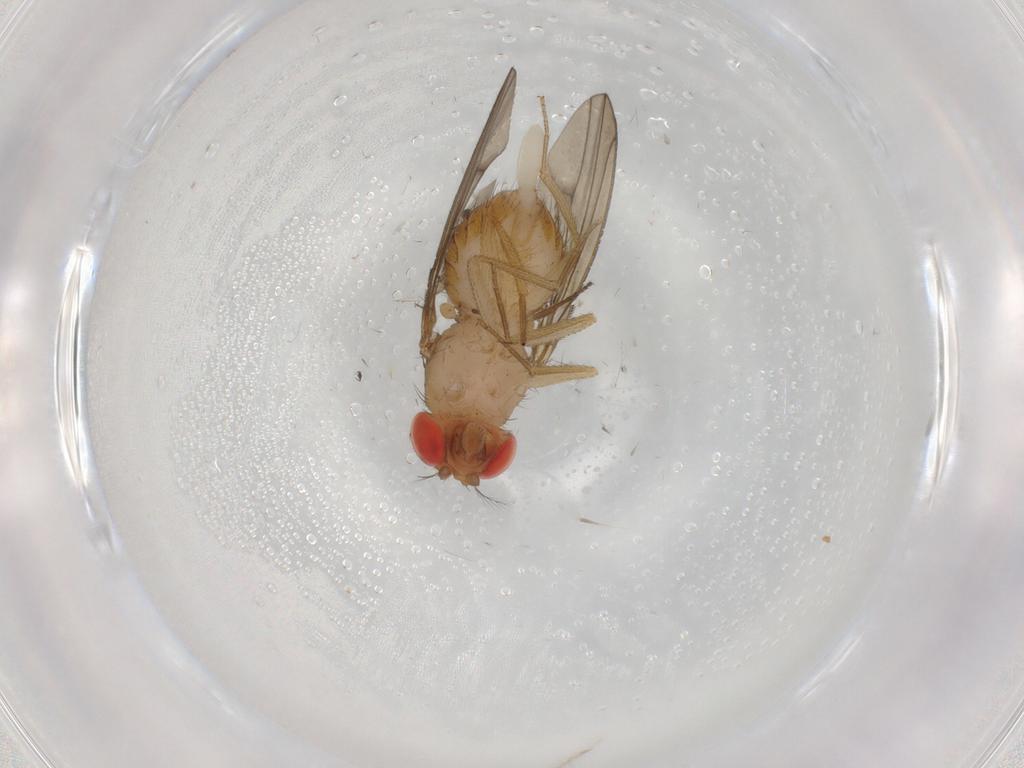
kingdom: Animalia
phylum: Arthropoda
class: Insecta
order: Diptera
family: Drosophilidae
